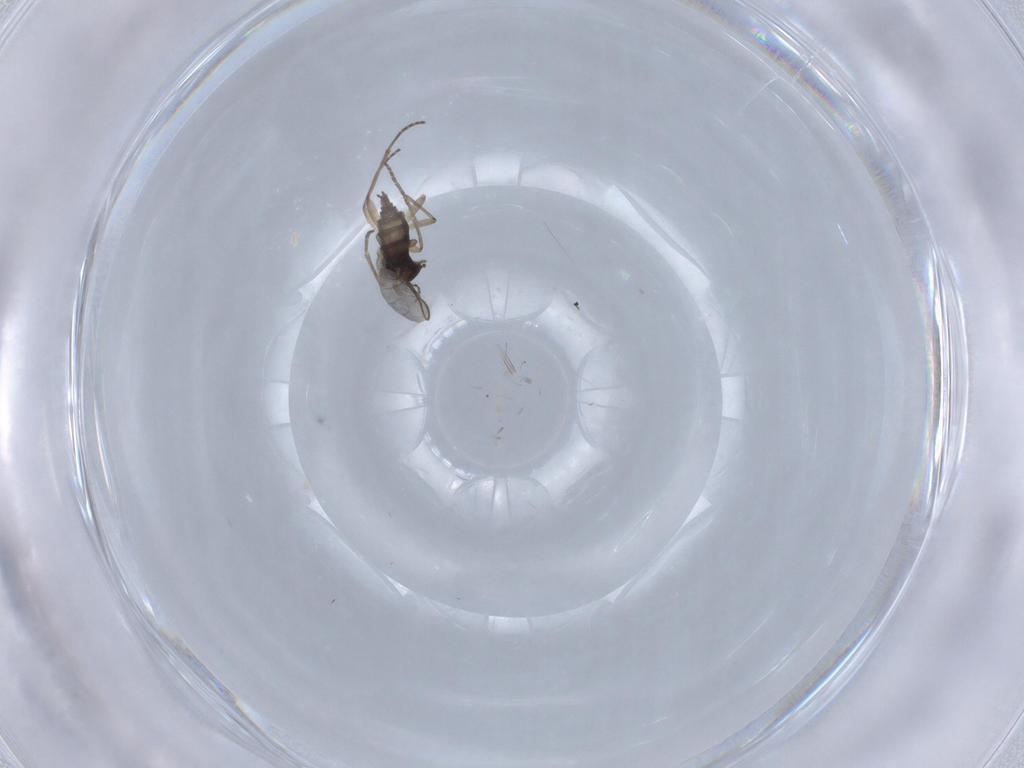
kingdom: Animalia
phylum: Arthropoda
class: Insecta
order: Diptera
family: Sciaridae
